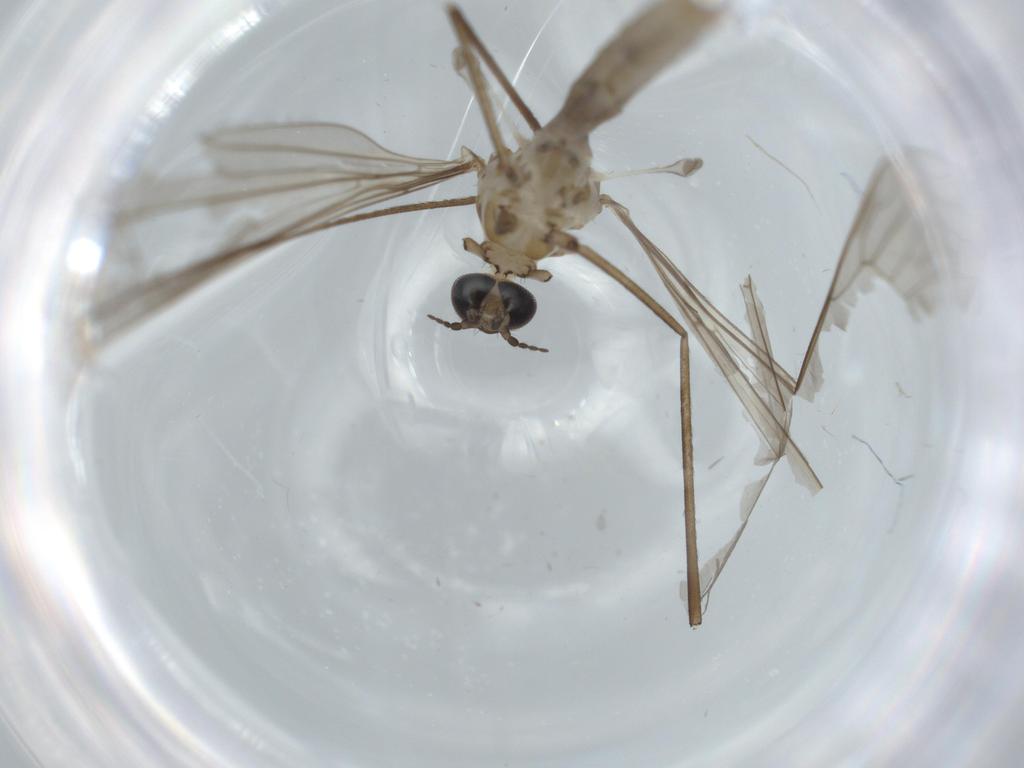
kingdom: Animalia
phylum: Arthropoda
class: Insecta
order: Diptera
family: Limoniidae
